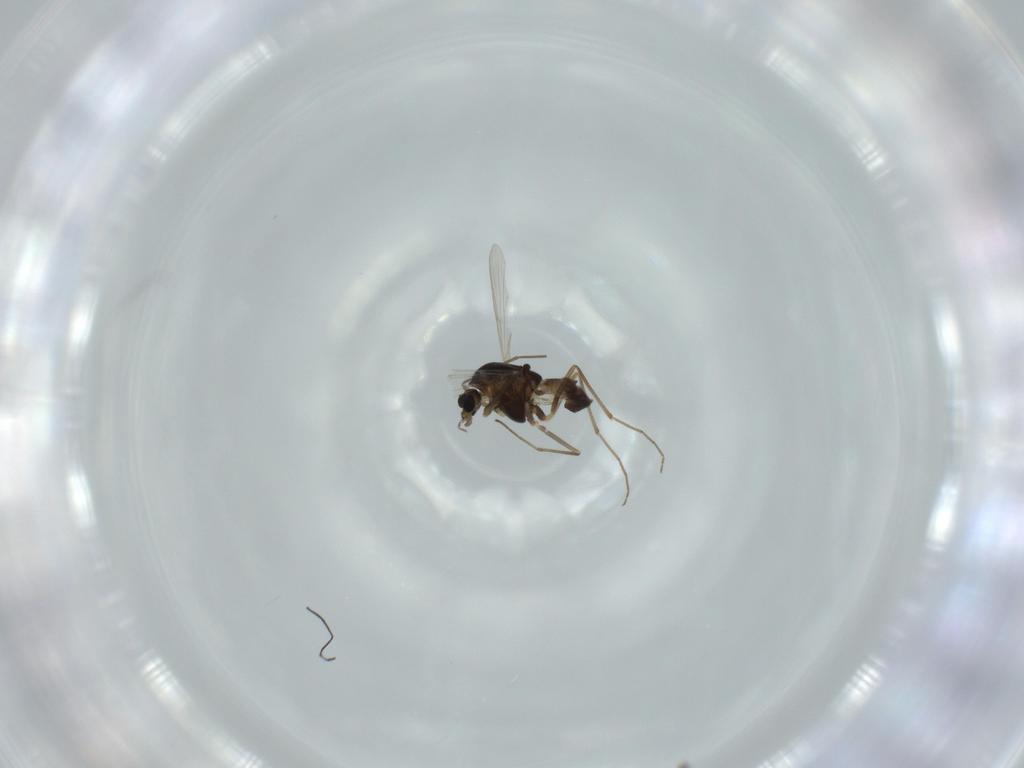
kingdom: Animalia
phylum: Arthropoda
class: Insecta
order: Diptera
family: Chironomidae
